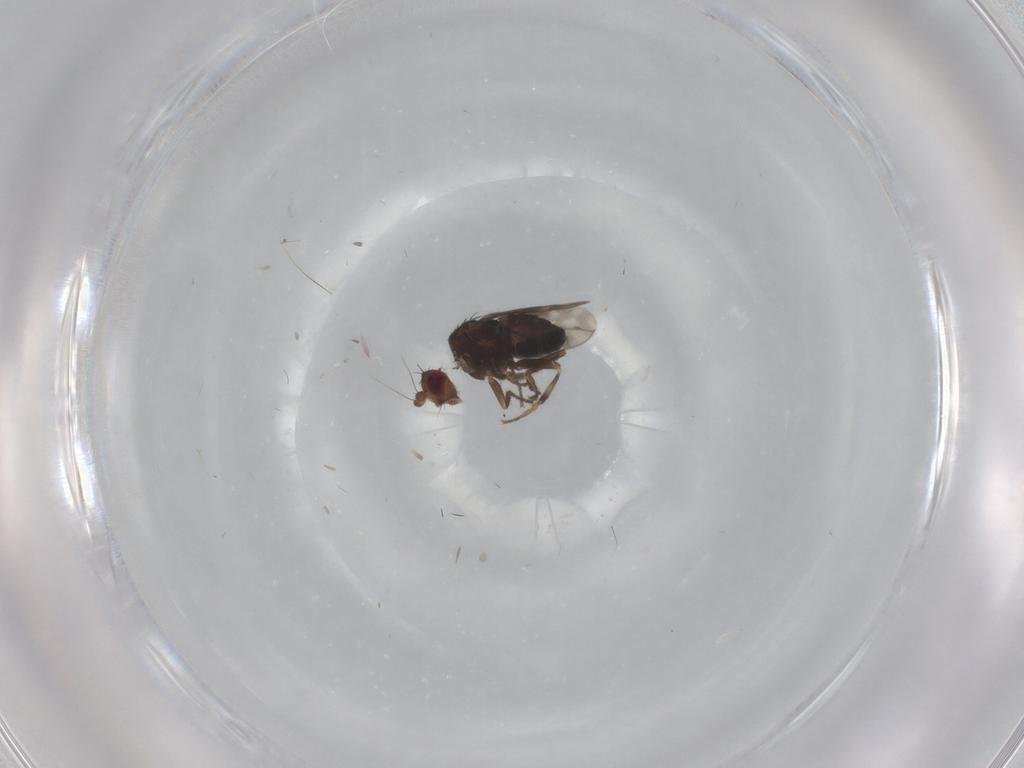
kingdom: Animalia
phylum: Arthropoda
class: Insecta
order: Diptera
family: Sphaeroceridae
